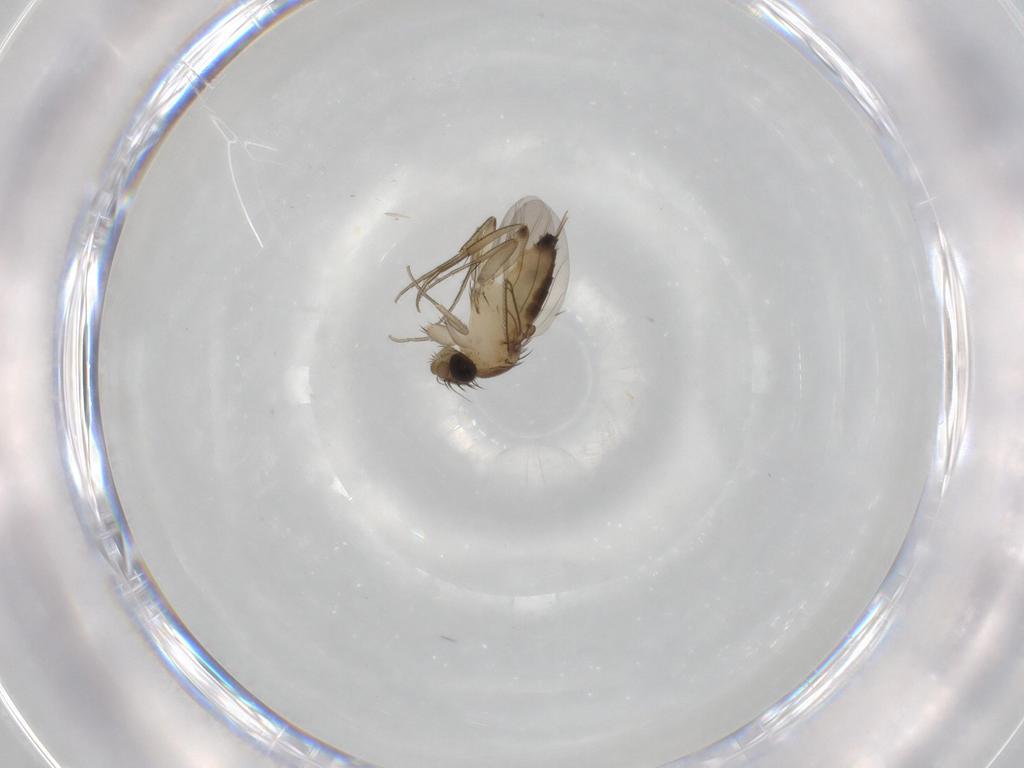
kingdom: Animalia
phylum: Arthropoda
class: Insecta
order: Diptera
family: Phoridae
